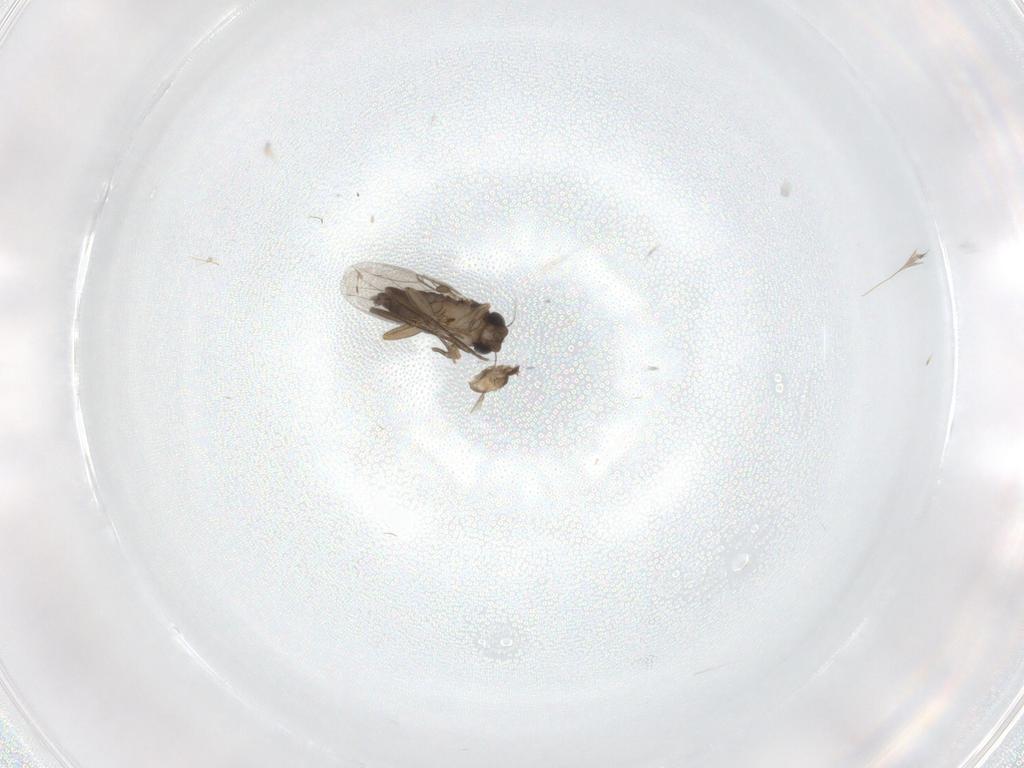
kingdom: Animalia
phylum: Arthropoda
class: Insecta
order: Diptera
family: Phoridae
